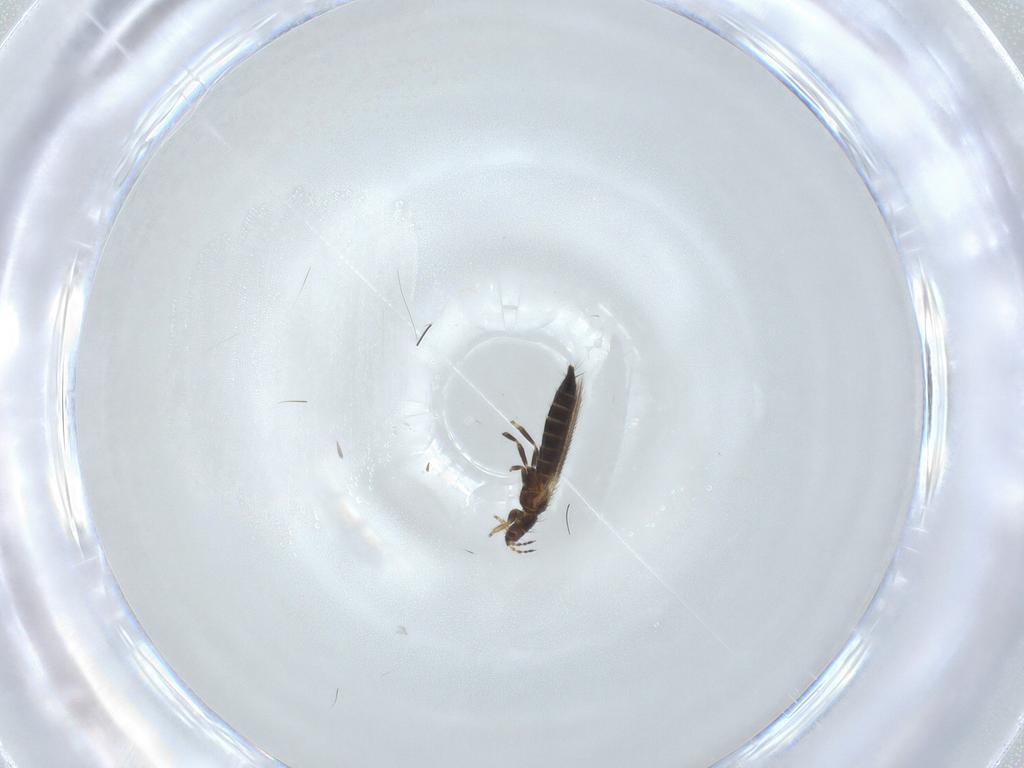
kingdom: Animalia
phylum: Arthropoda
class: Insecta
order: Thysanoptera
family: Thripidae
